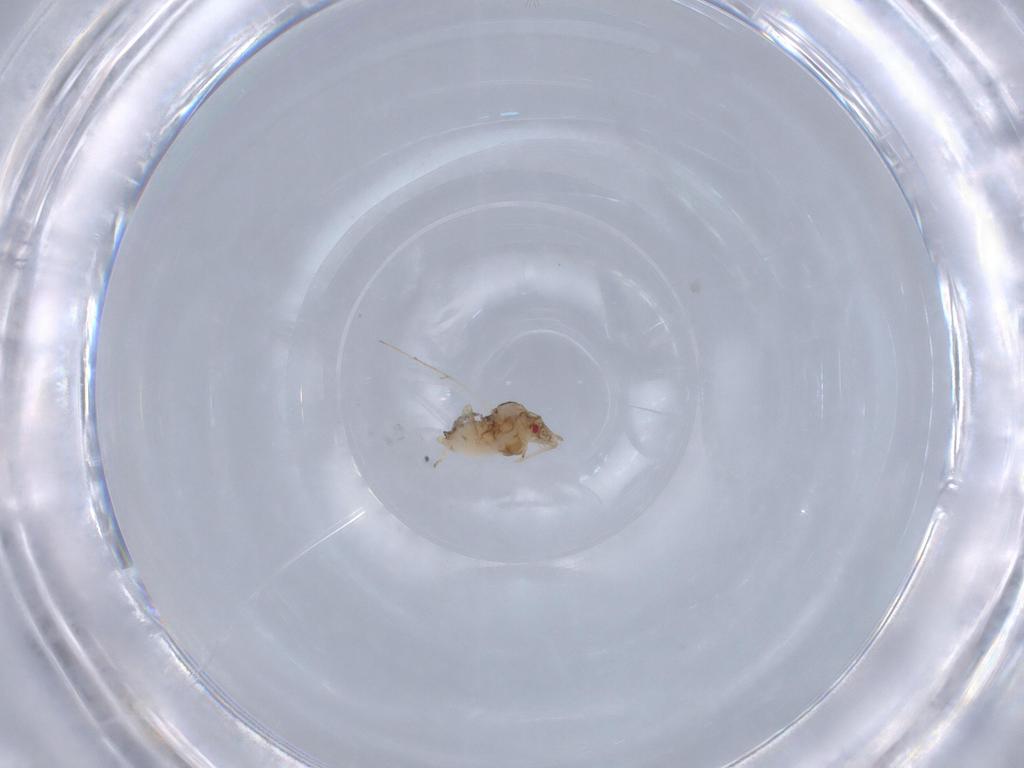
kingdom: Animalia
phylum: Arthropoda
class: Insecta
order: Hemiptera
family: Aphididae
